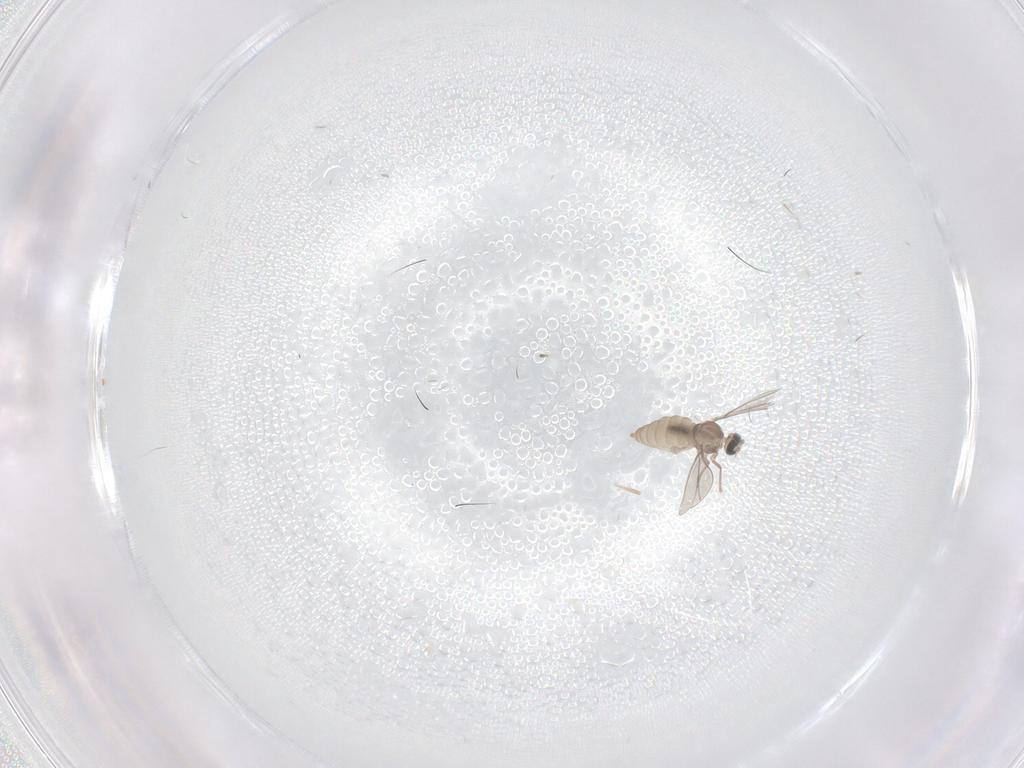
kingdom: Animalia
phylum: Arthropoda
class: Insecta
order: Diptera
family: Cecidomyiidae
